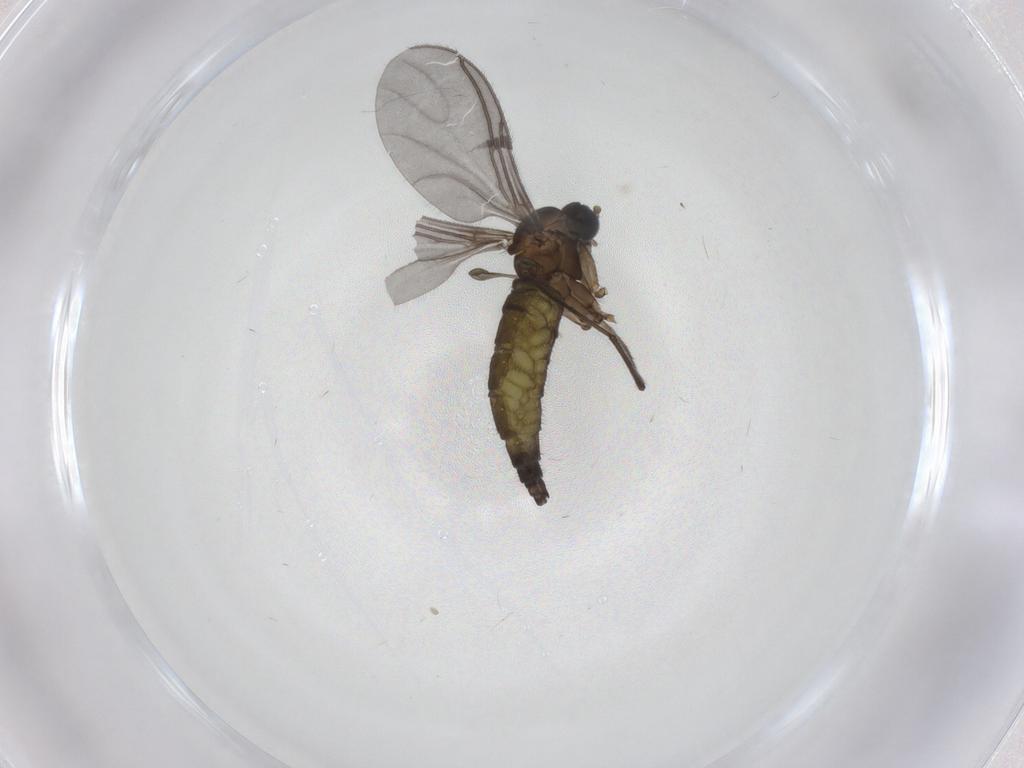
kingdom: Animalia
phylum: Arthropoda
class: Insecta
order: Diptera
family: Sciaridae
